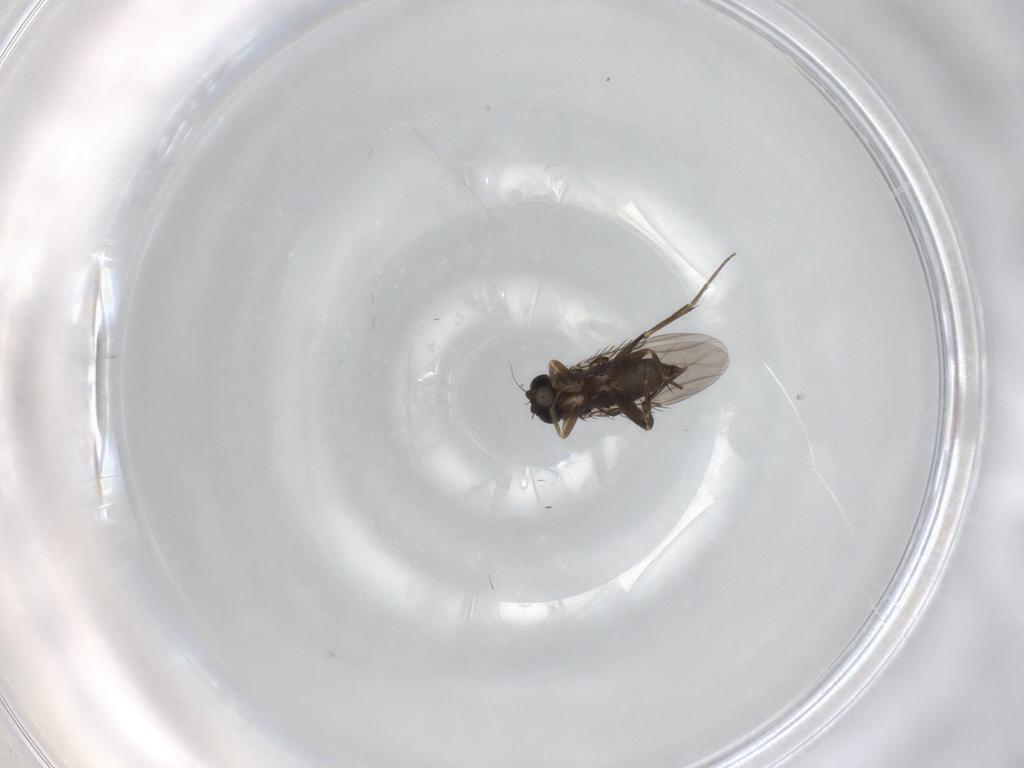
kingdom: Animalia
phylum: Arthropoda
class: Insecta
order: Diptera
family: Phoridae
